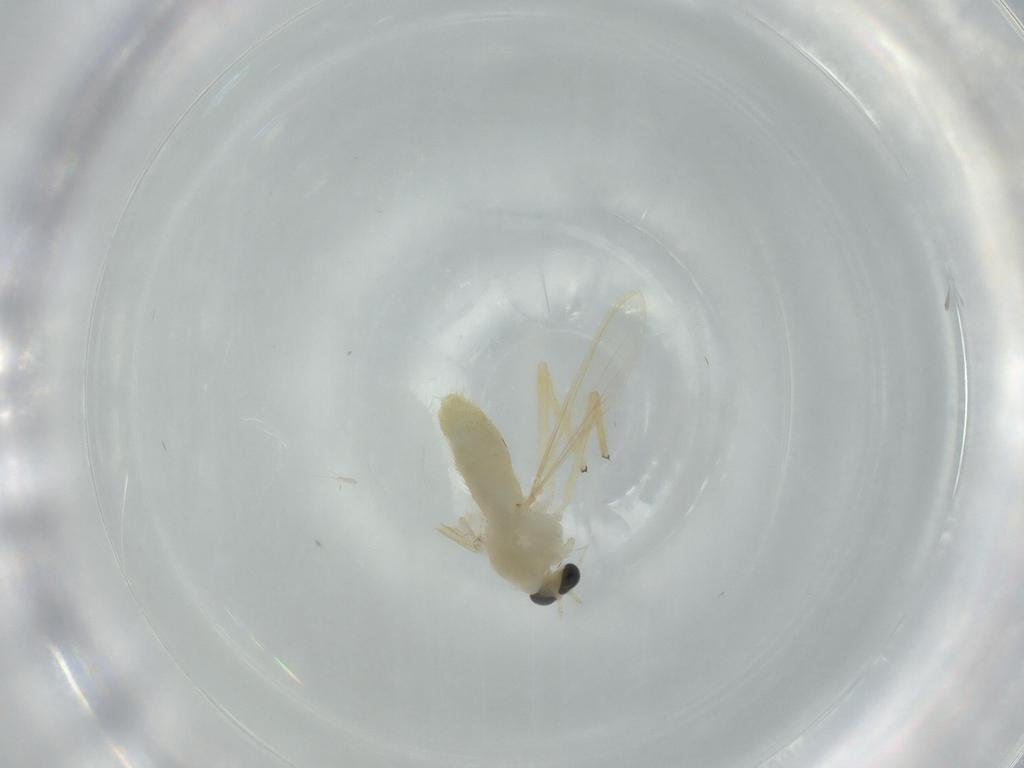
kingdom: Animalia
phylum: Arthropoda
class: Insecta
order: Diptera
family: Chironomidae
